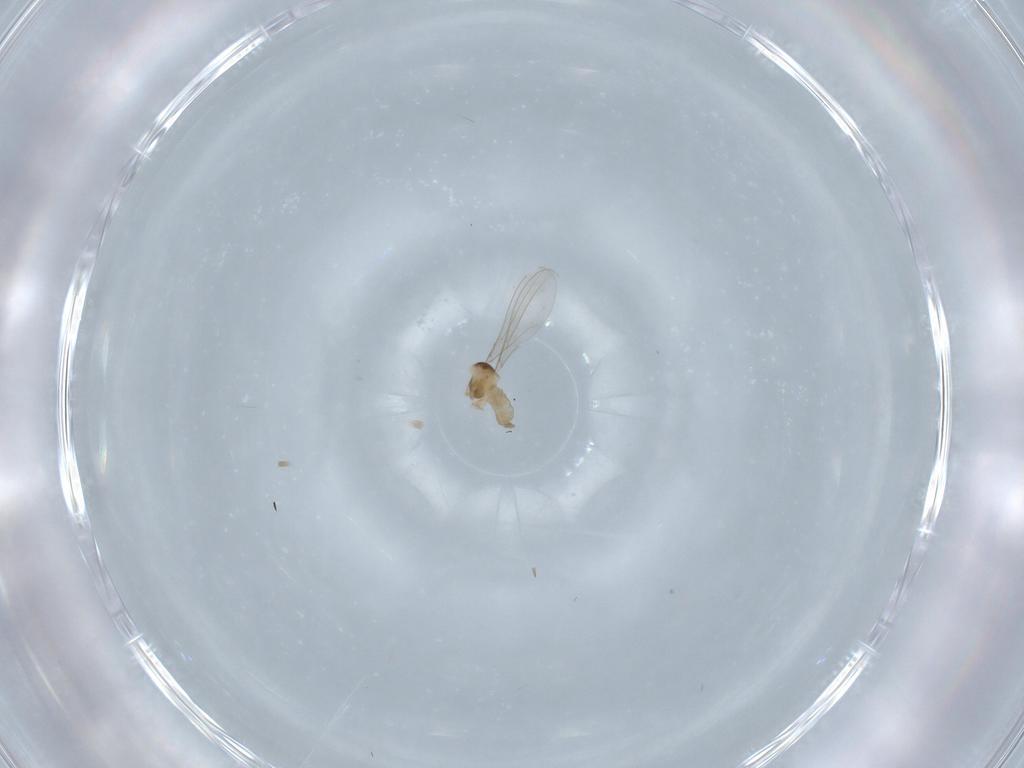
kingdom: Animalia
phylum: Arthropoda
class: Insecta
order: Diptera
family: Cecidomyiidae
